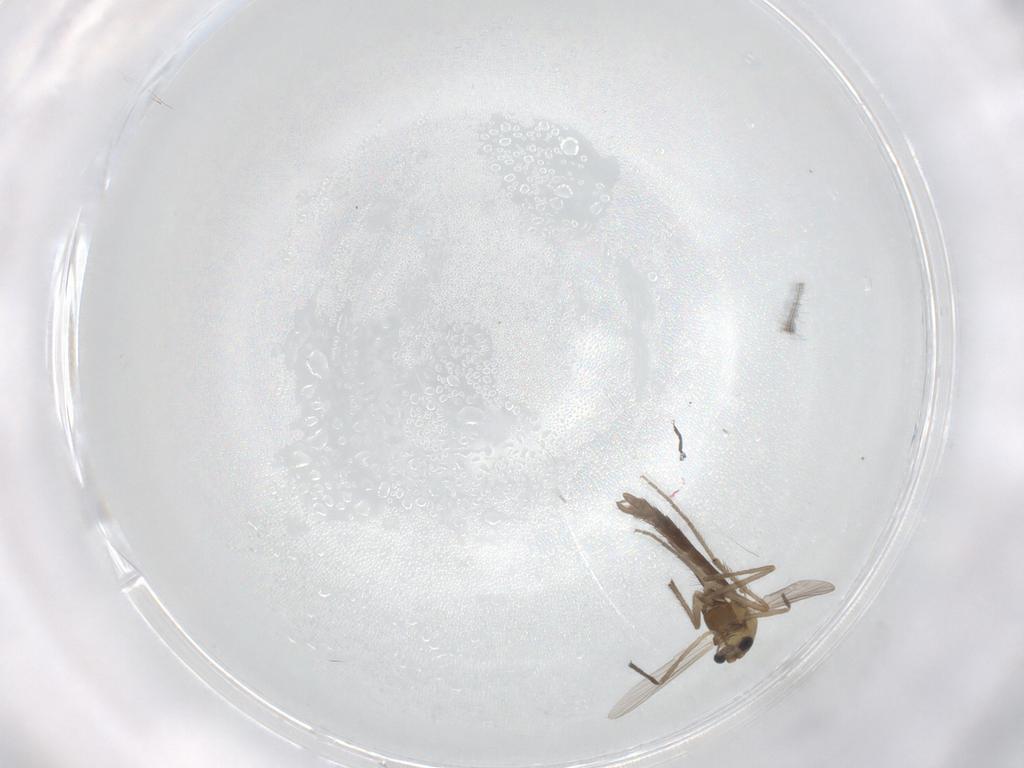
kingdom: Animalia
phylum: Arthropoda
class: Insecta
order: Diptera
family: Chironomidae
